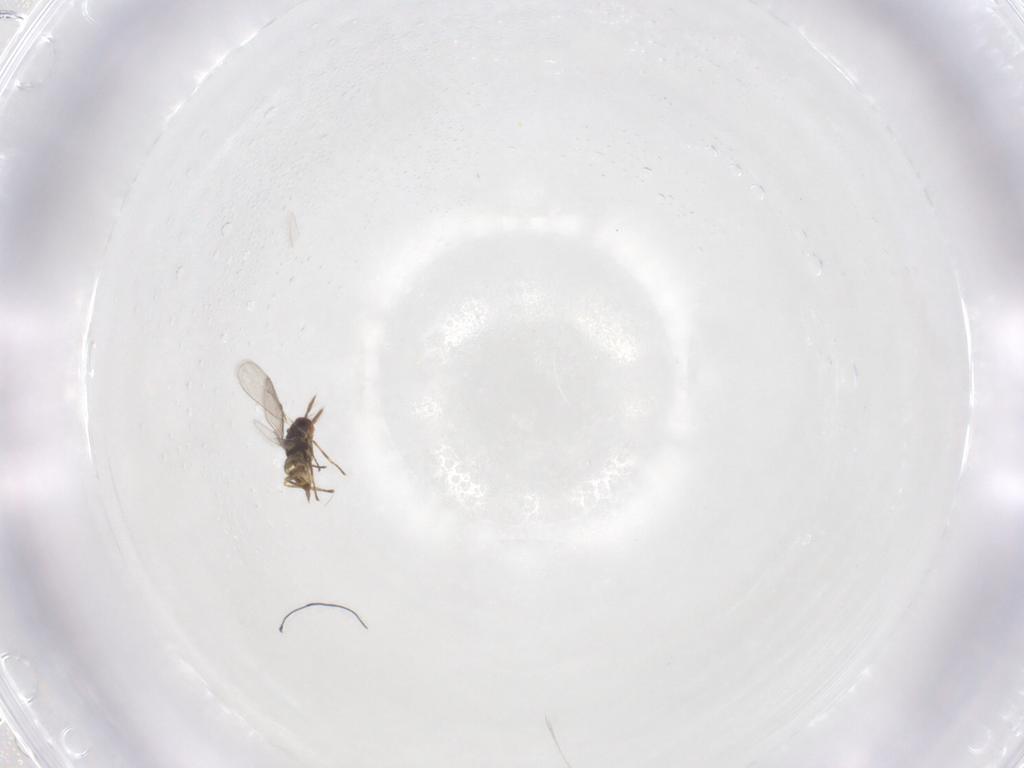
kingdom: Animalia
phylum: Arthropoda
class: Insecta
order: Hymenoptera
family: Eulophidae
